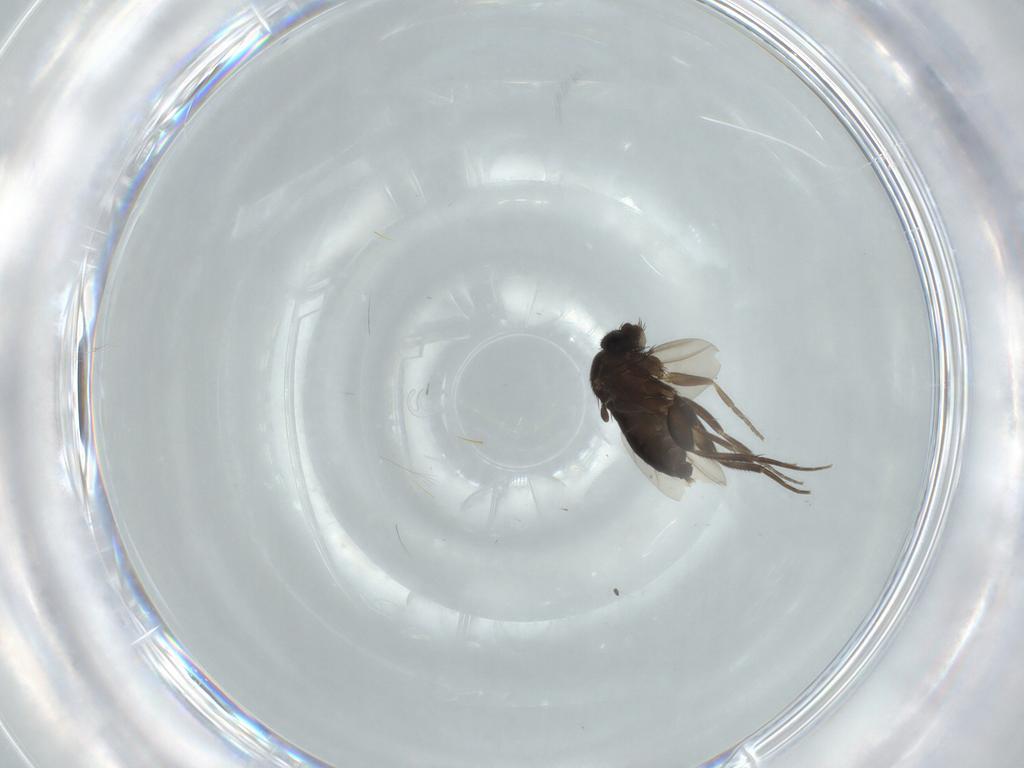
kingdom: Animalia
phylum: Arthropoda
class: Insecta
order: Diptera
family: Cecidomyiidae
